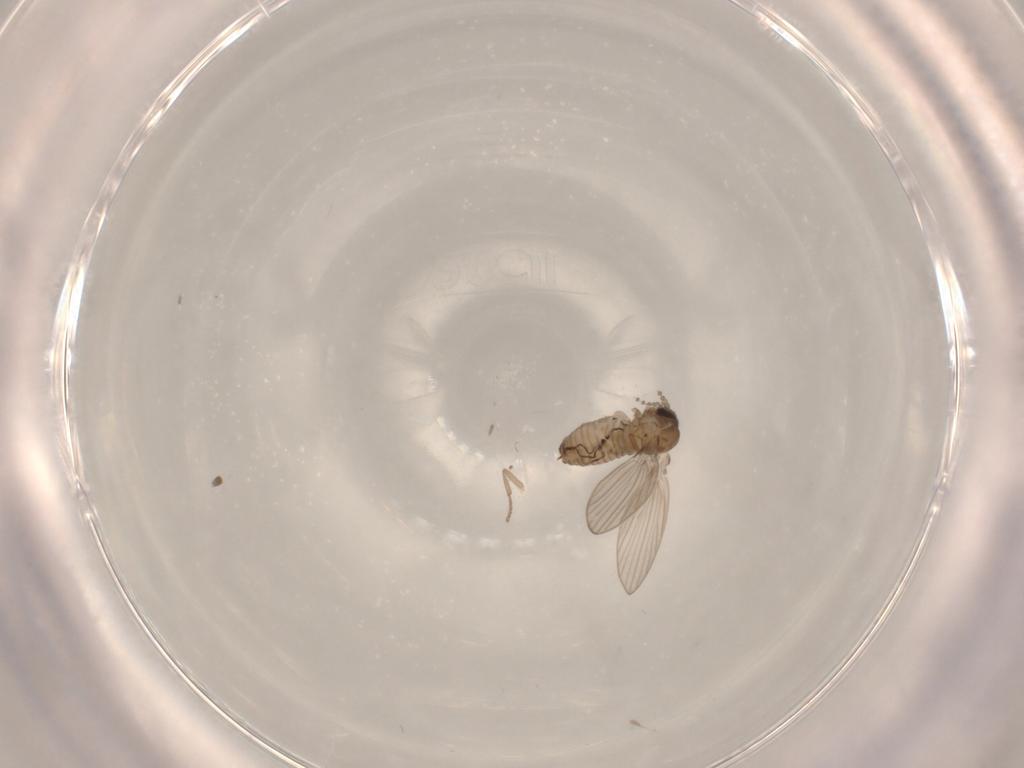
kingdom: Animalia
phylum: Arthropoda
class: Insecta
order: Diptera
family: Psychodidae
